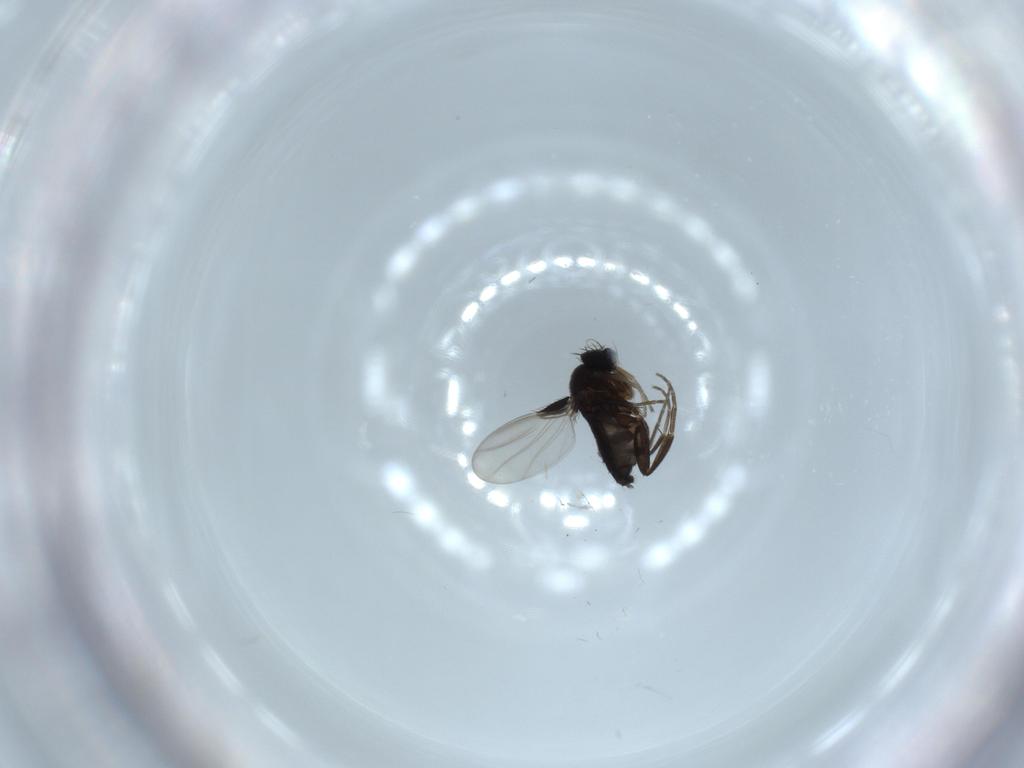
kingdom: Animalia
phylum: Arthropoda
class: Insecta
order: Diptera
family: Phoridae
